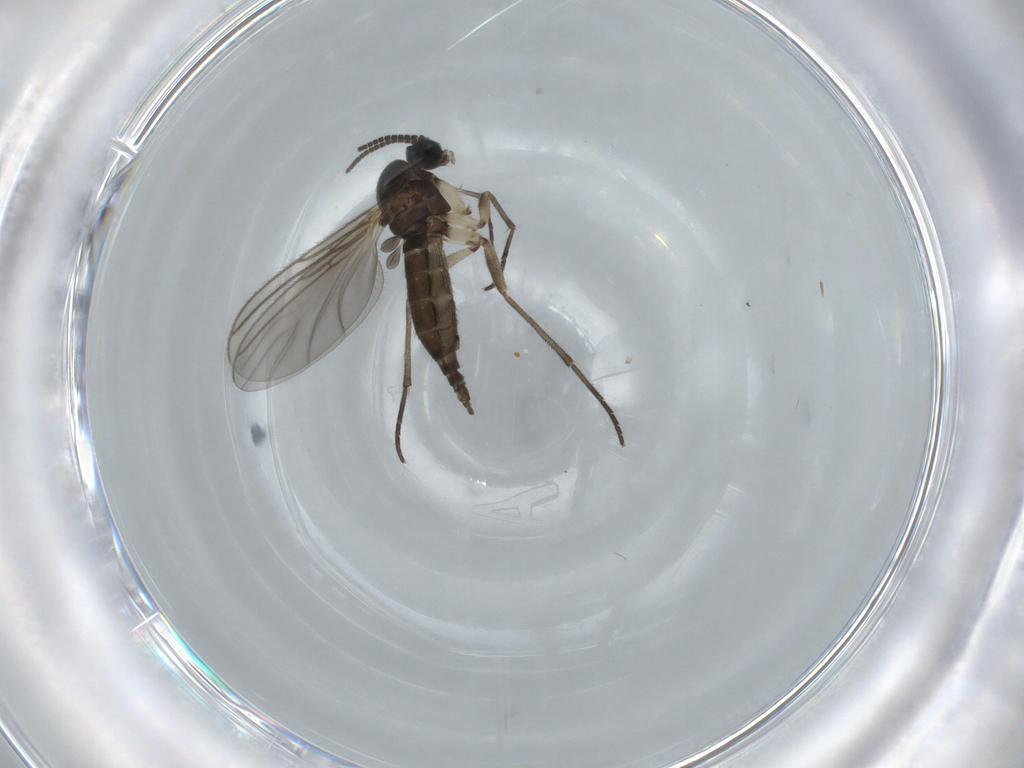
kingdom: Animalia
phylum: Arthropoda
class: Insecta
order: Diptera
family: Sciaridae
